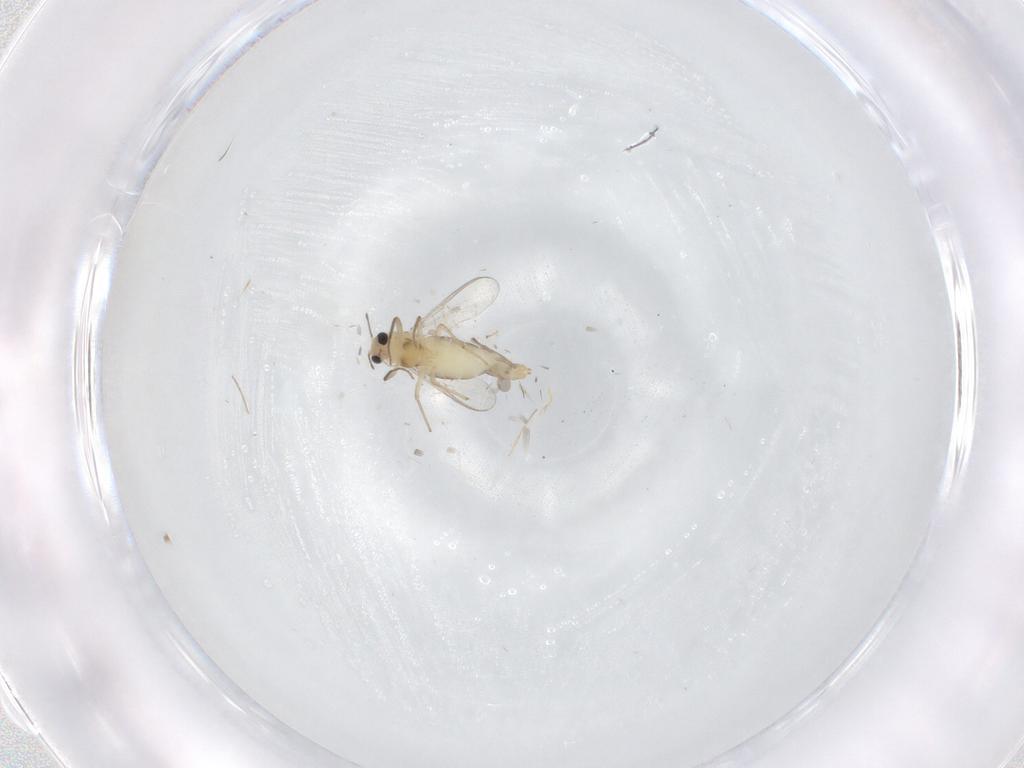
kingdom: Animalia
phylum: Arthropoda
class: Insecta
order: Diptera
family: Chironomidae
